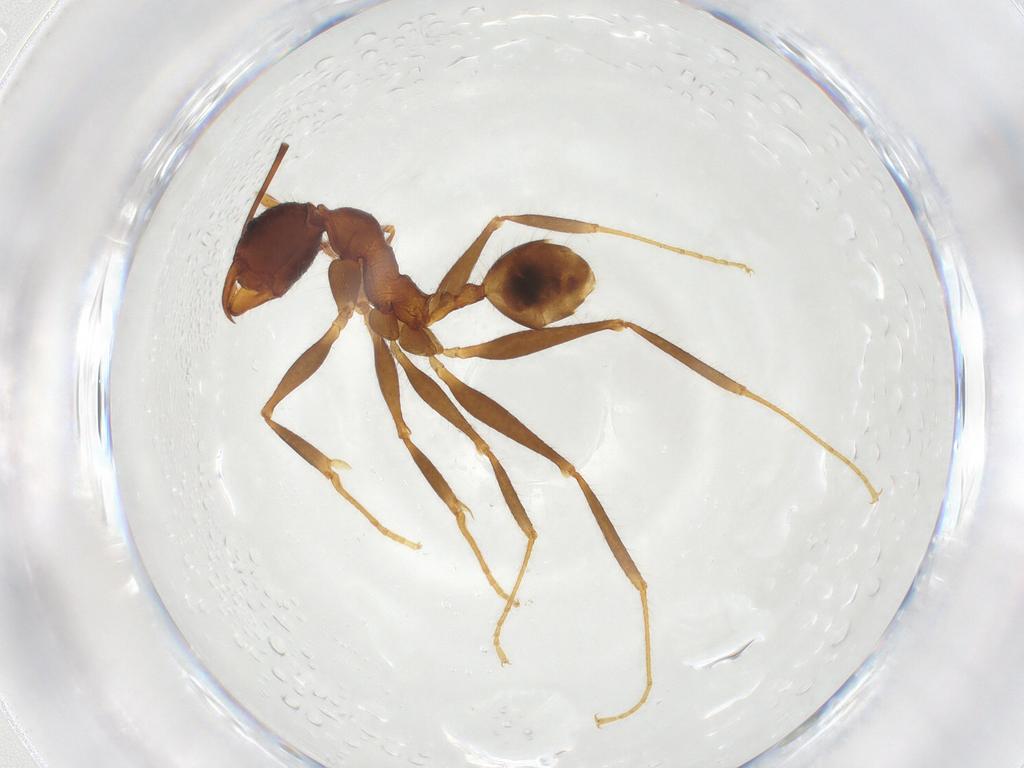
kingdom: Animalia
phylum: Arthropoda
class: Insecta
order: Hymenoptera
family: Formicidae
